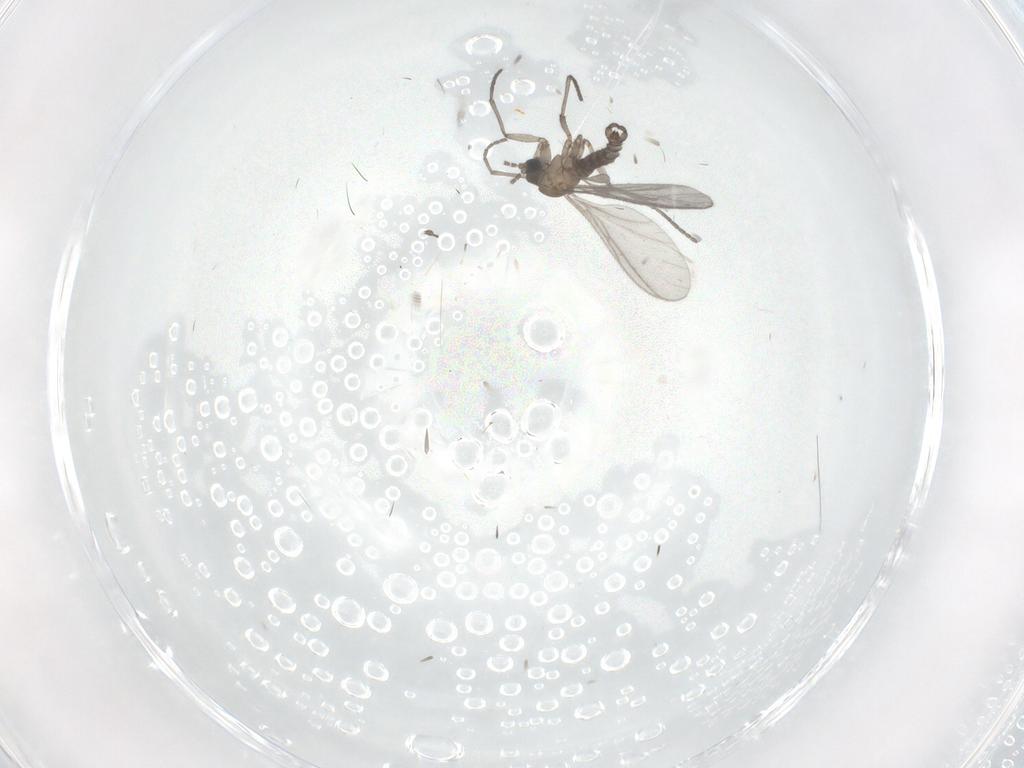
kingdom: Animalia
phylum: Arthropoda
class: Insecta
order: Diptera
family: Sciaridae
